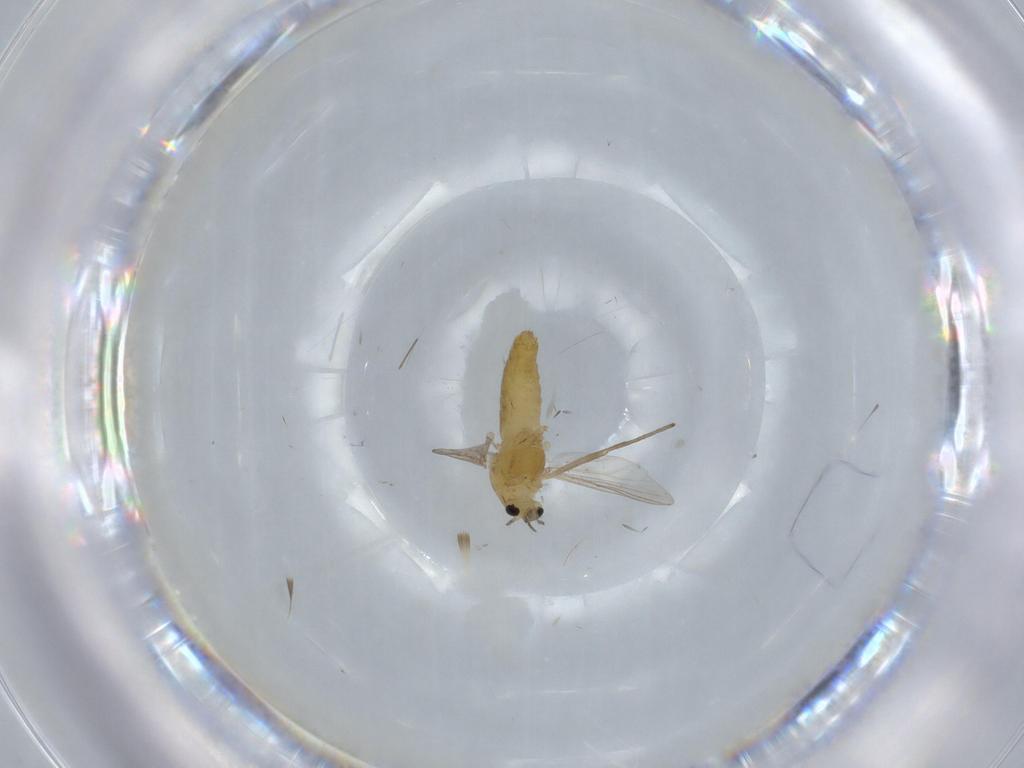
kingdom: Animalia
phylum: Arthropoda
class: Insecta
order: Diptera
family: Chironomidae
